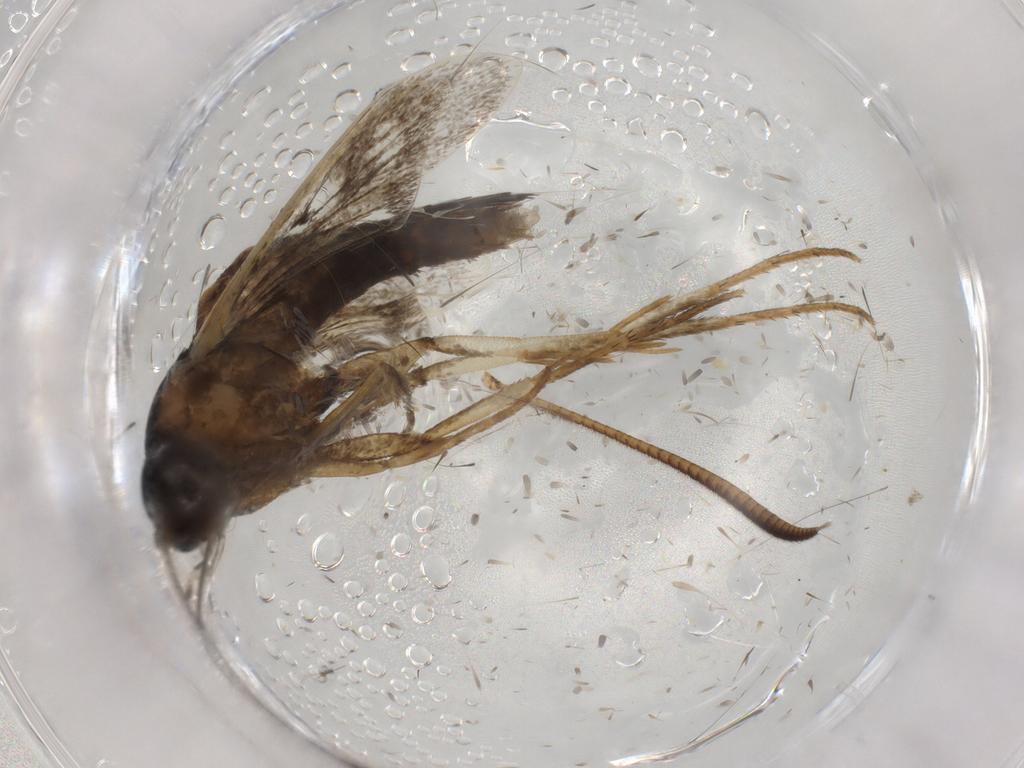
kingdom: Animalia
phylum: Arthropoda
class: Insecta
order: Lepidoptera
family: Sesiidae
